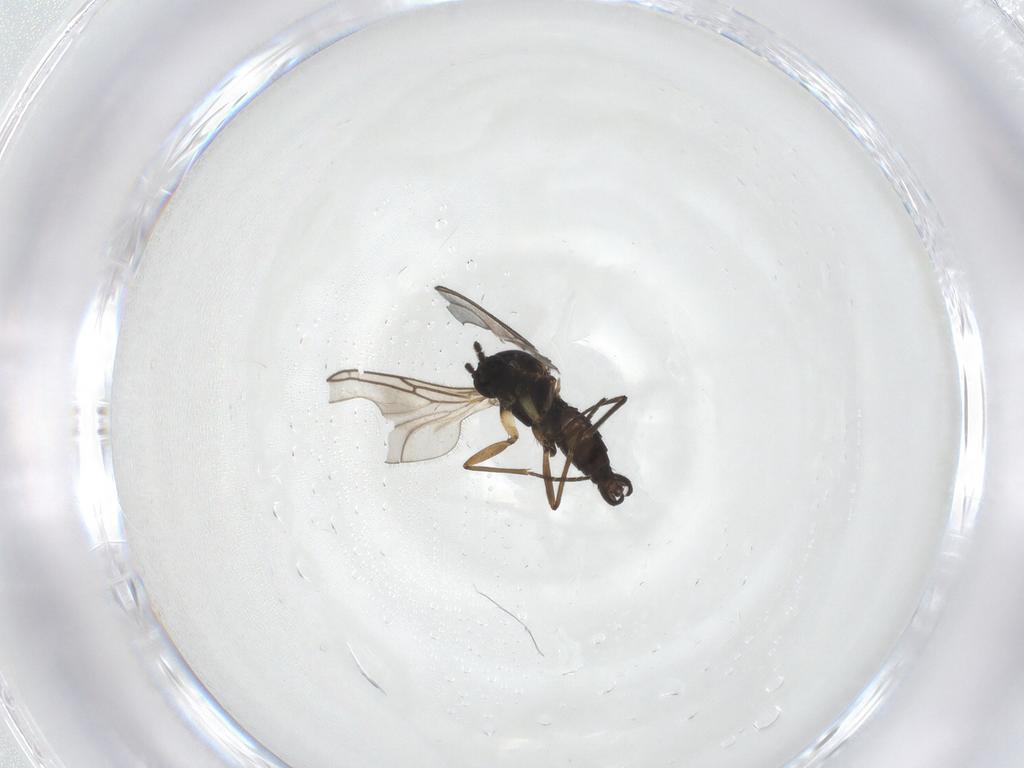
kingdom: Animalia
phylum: Arthropoda
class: Insecta
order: Diptera
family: Sciaridae
